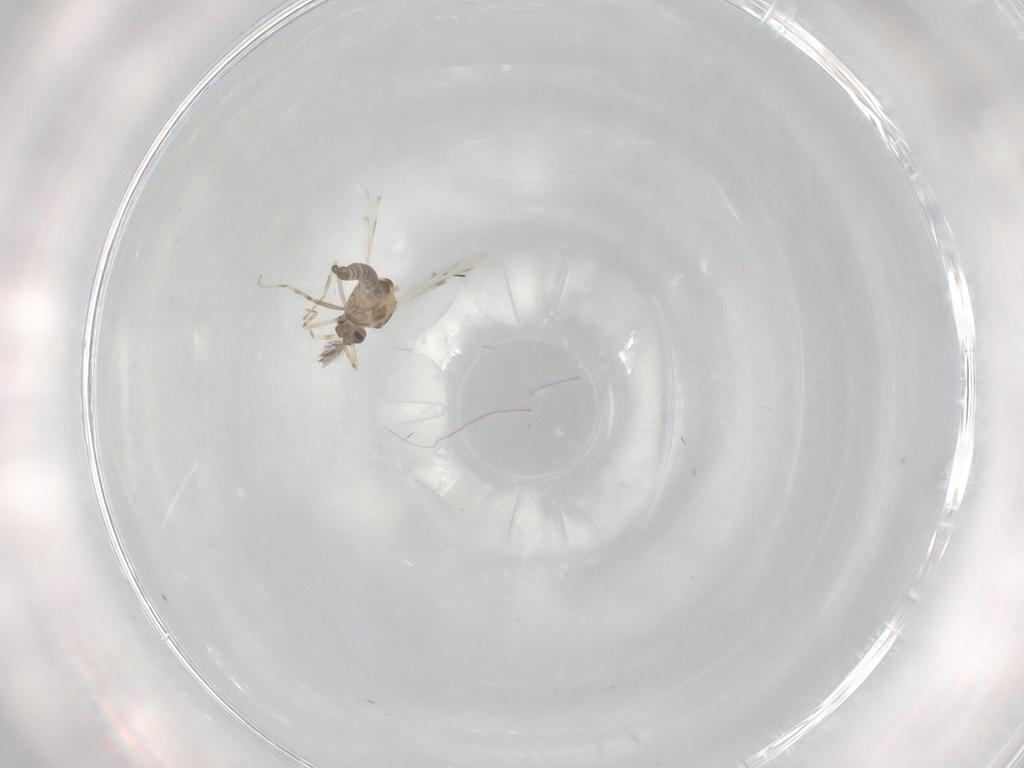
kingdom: Animalia
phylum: Arthropoda
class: Insecta
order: Diptera
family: Ceratopogonidae
